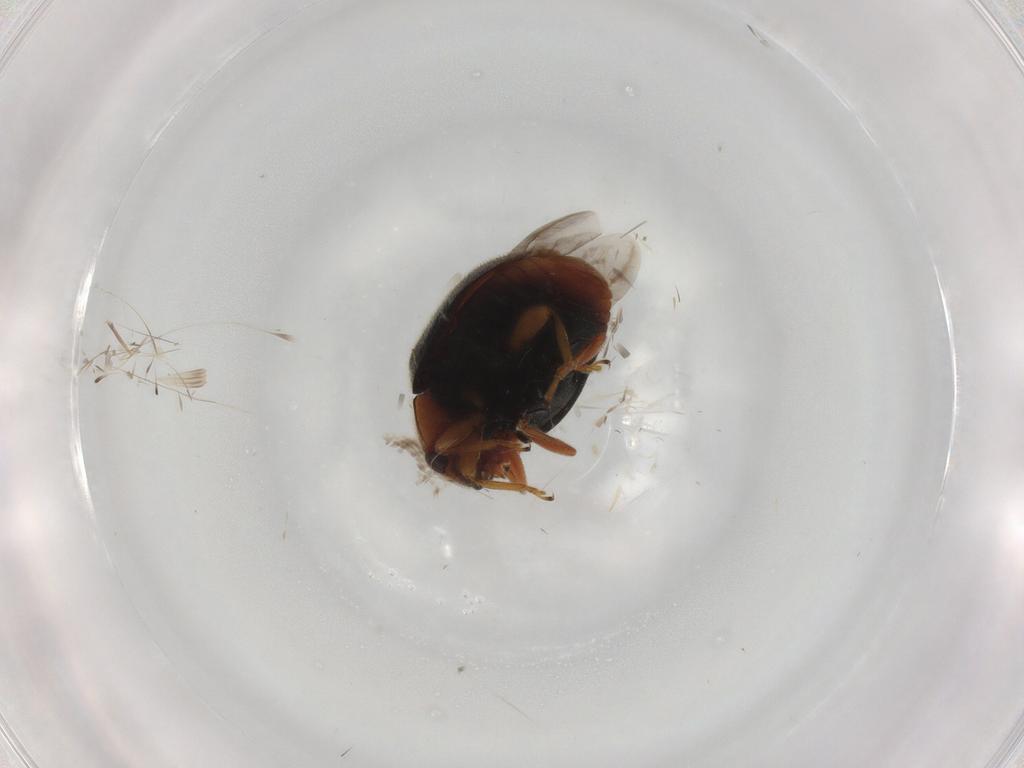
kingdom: Animalia
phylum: Arthropoda
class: Insecta
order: Coleoptera
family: Coccinellidae
